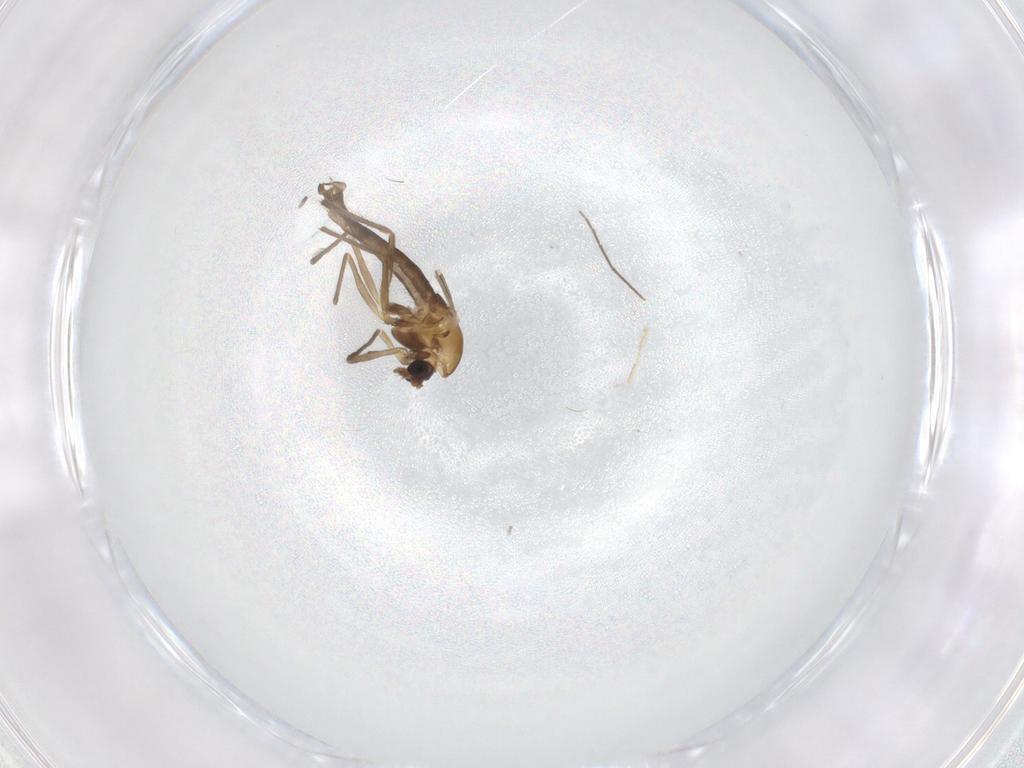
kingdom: Animalia
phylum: Arthropoda
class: Insecta
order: Diptera
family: Chironomidae
